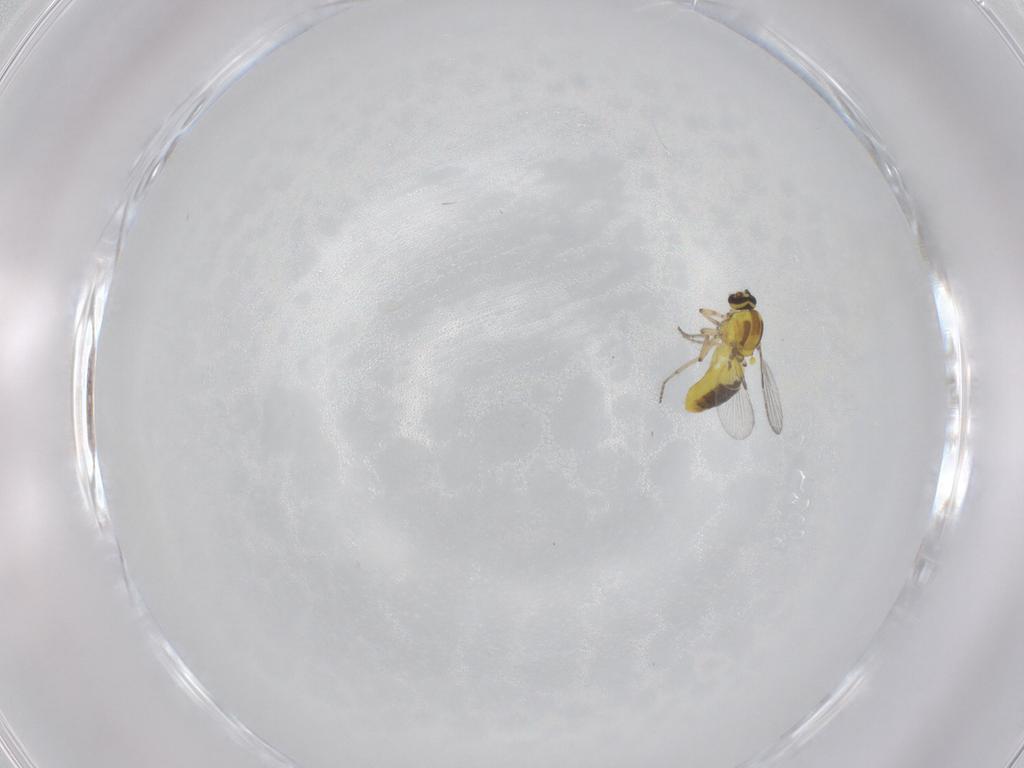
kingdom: Animalia
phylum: Arthropoda
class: Insecta
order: Diptera
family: Ceratopogonidae
